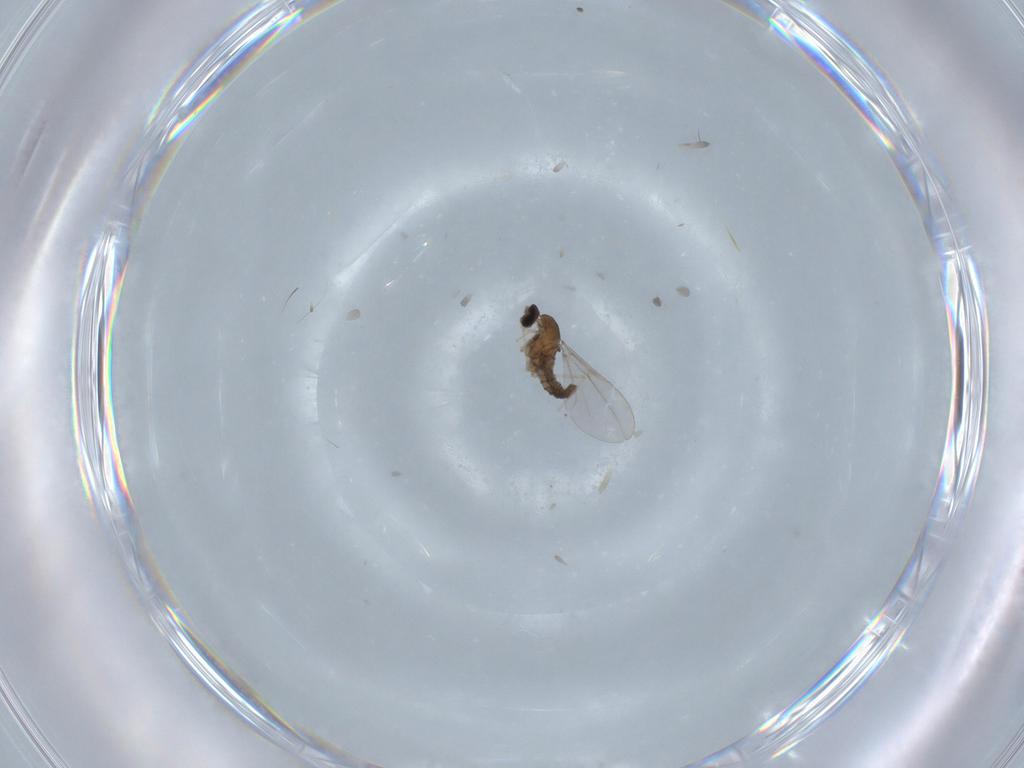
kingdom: Animalia
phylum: Arthropoda
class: Insecta
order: Diptera
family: Cecidomyiidae
